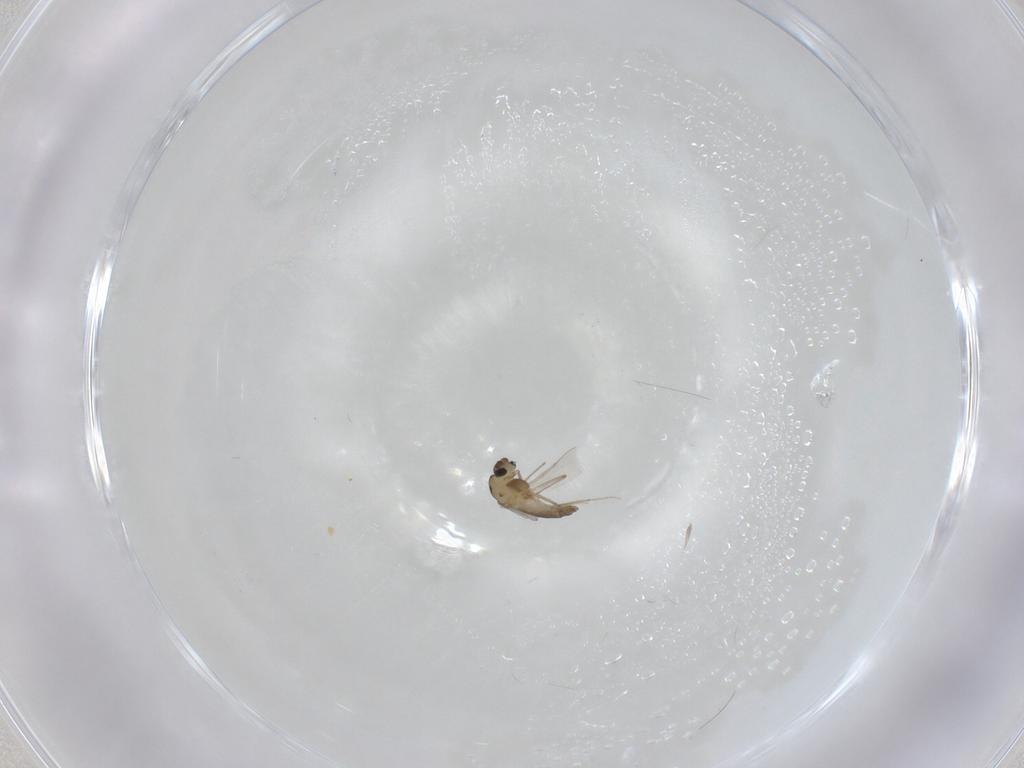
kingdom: Animalia
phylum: Arthropoda
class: Insecta
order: Diptera
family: Chironomidae
